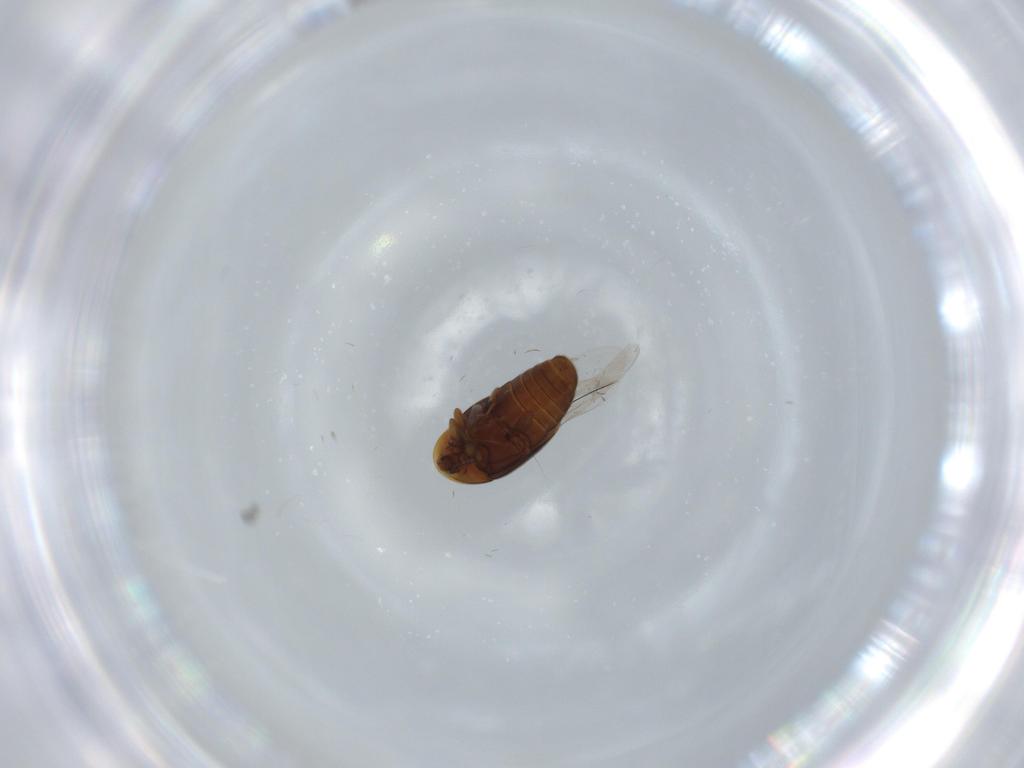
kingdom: Animalia
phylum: Arthropoda
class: Insecta
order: Coleoptera
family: Corylophidae
